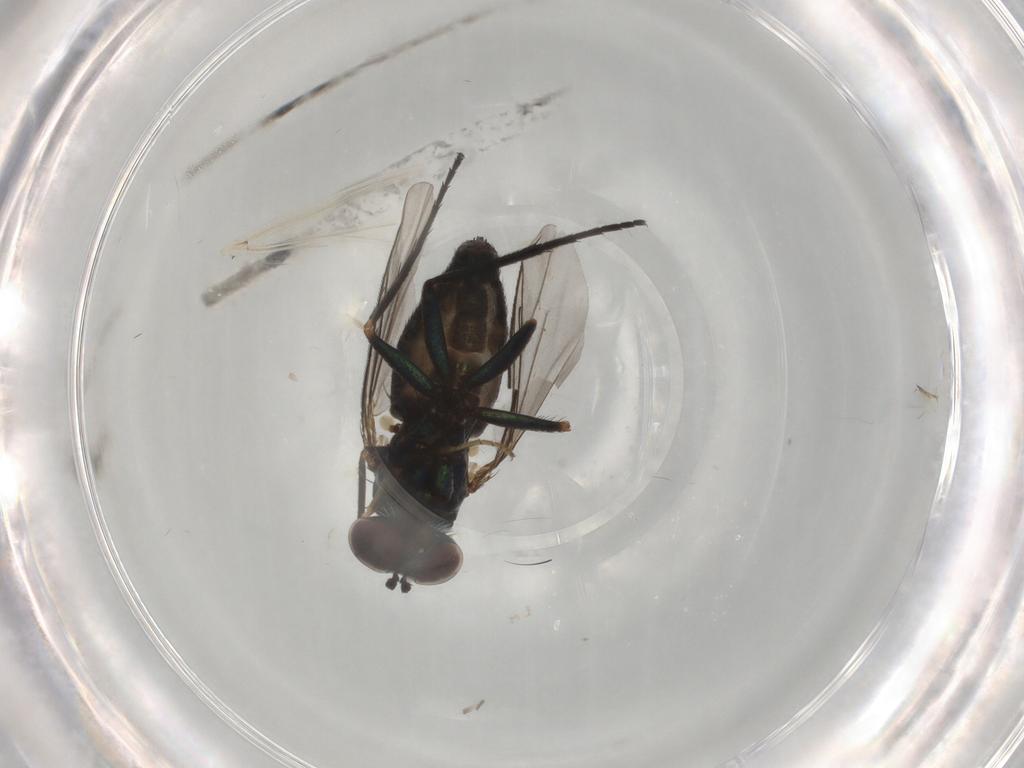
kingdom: Animalia
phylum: Arthropoda
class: Insecta
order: Diptera
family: Dolichopodidae
